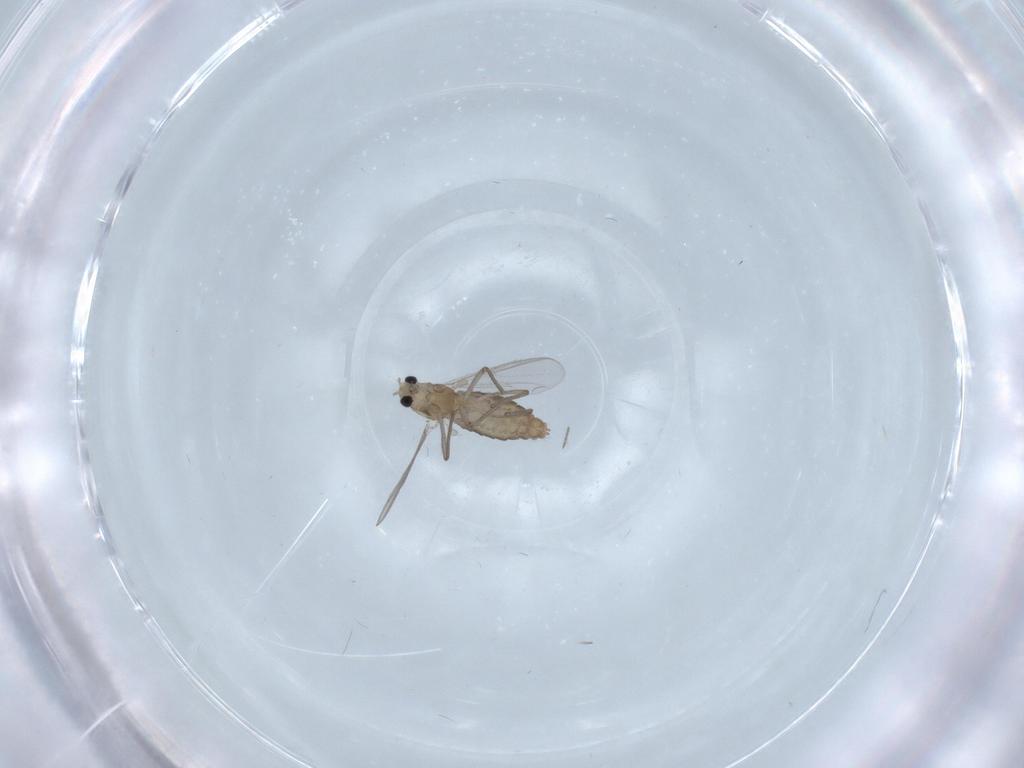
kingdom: Animalia
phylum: Arthropoda
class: Insecta
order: Diptera
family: Chironomidae
